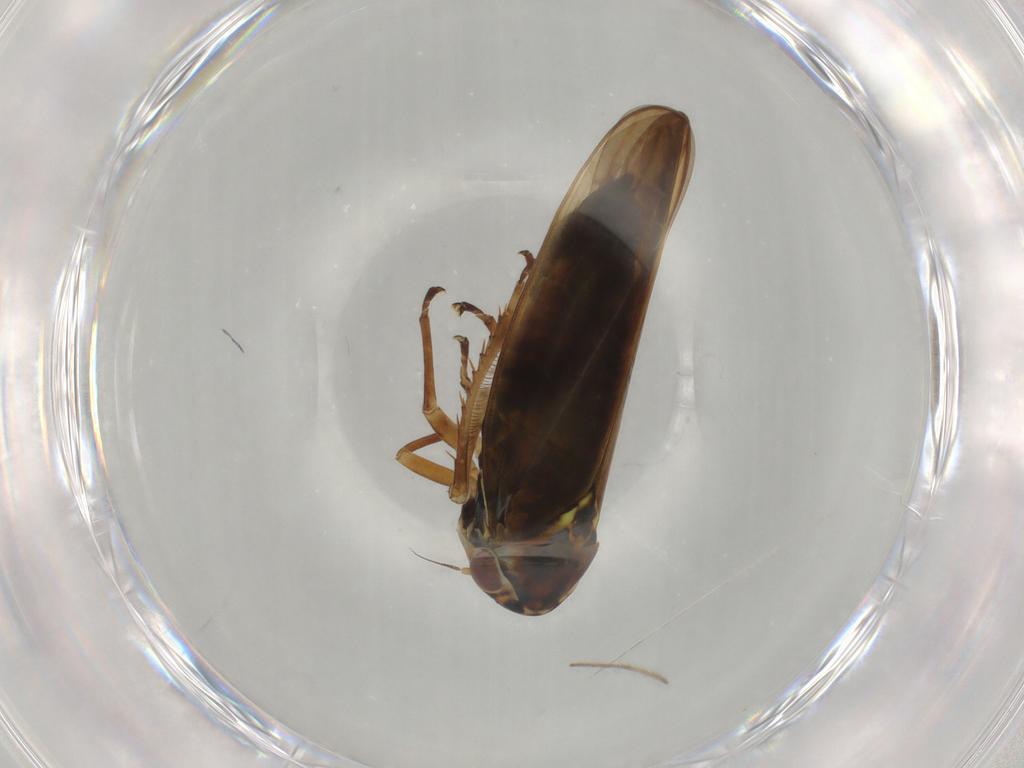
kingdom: Animalia
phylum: Arthropoda
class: Insecta
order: Hemiptera
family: Cicadellidae
